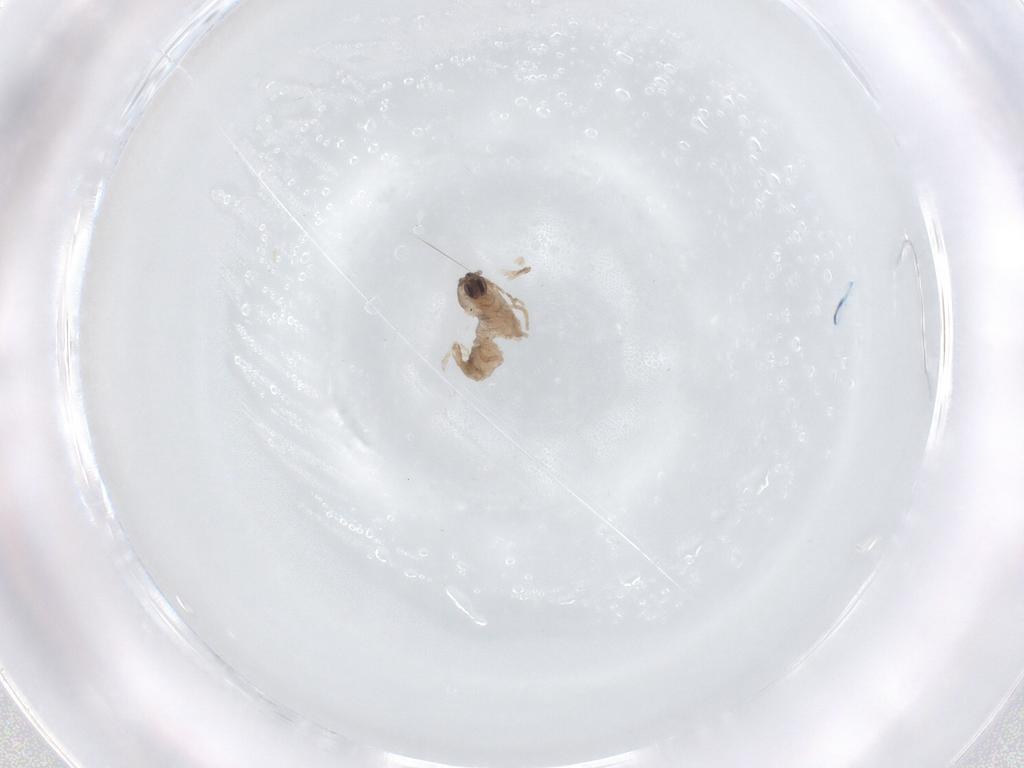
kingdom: Animalia
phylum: Arthropoda
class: Insecta
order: Diptera
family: Cecidomyiidae
